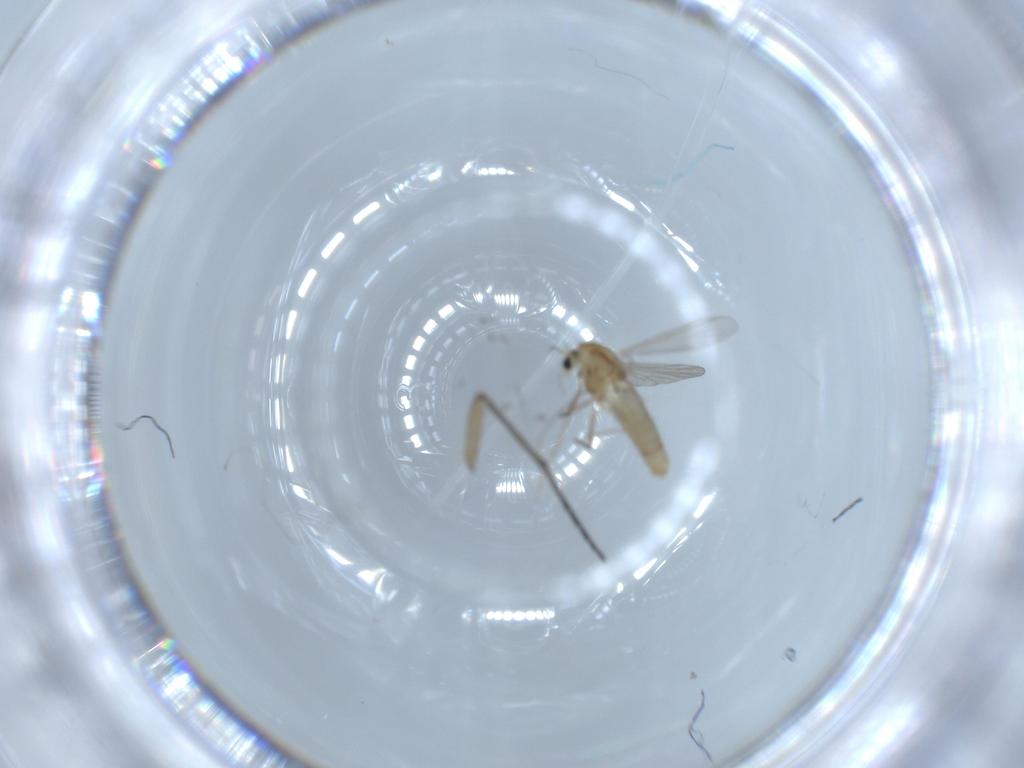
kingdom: Animalia
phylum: Arthropoda
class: Insecta
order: Diptera
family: Chironomidae
